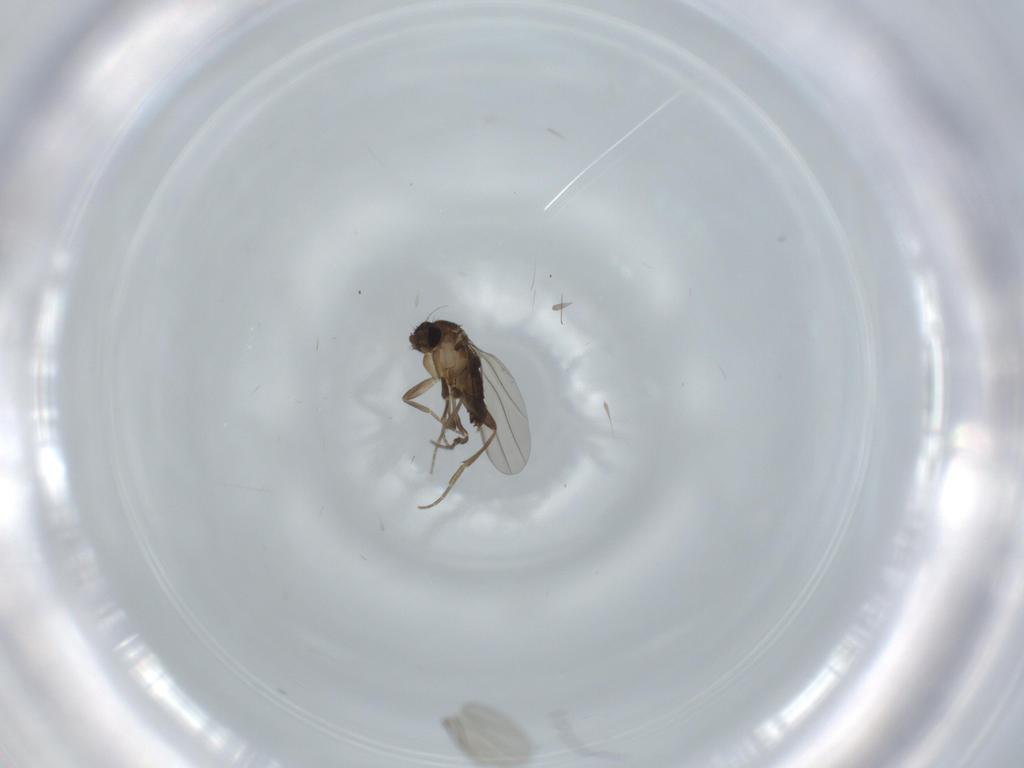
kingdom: Animalia
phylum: Arthropoda
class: Insecta
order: Diptera
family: Phoridae
